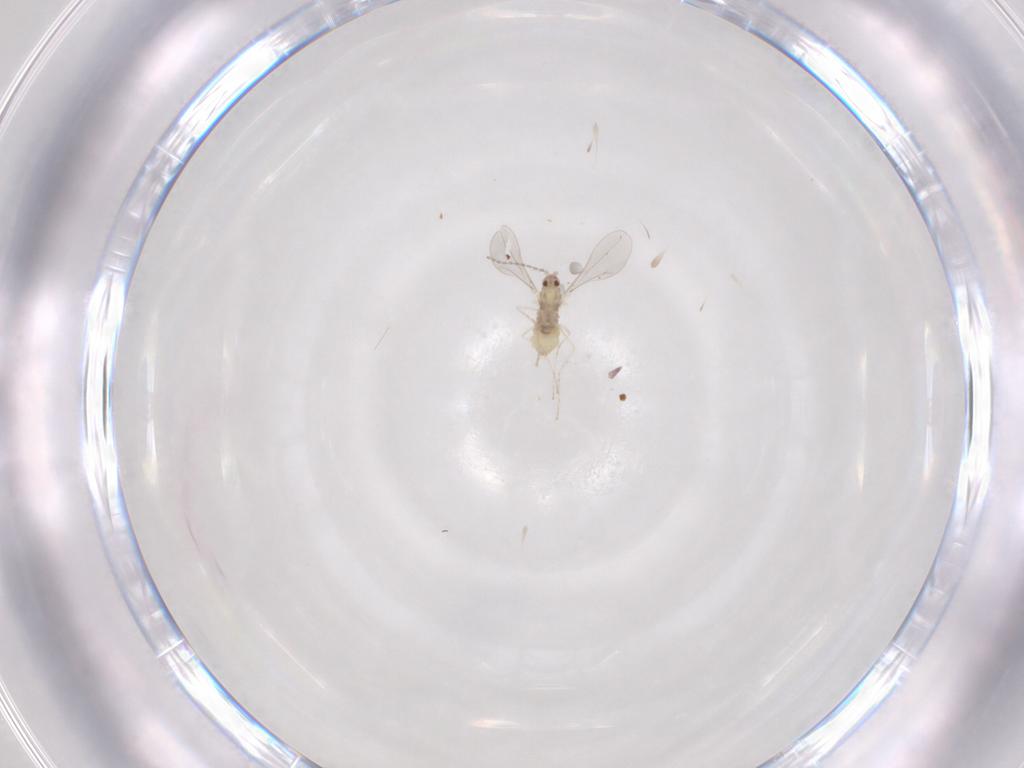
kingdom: Animalia
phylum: Arthropoda
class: Insecta
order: Diptera
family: Cecidomyiidae
